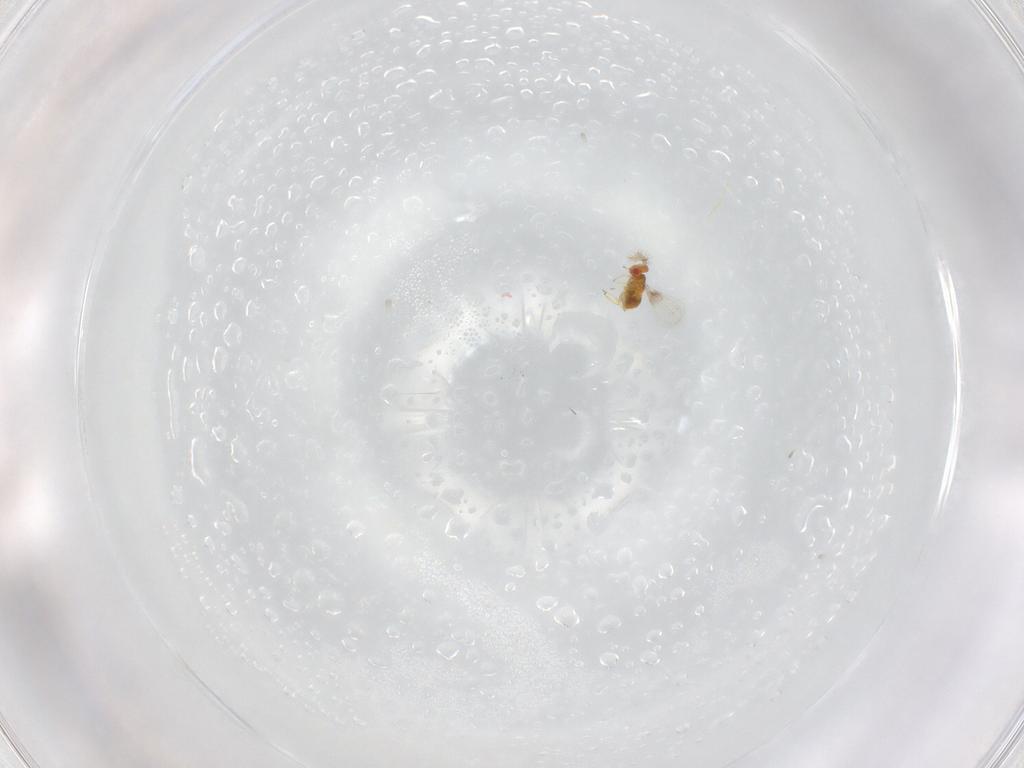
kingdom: Animalia
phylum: Arthropoda
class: Insecta
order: Hymenoptera
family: Trichogrammatidae
